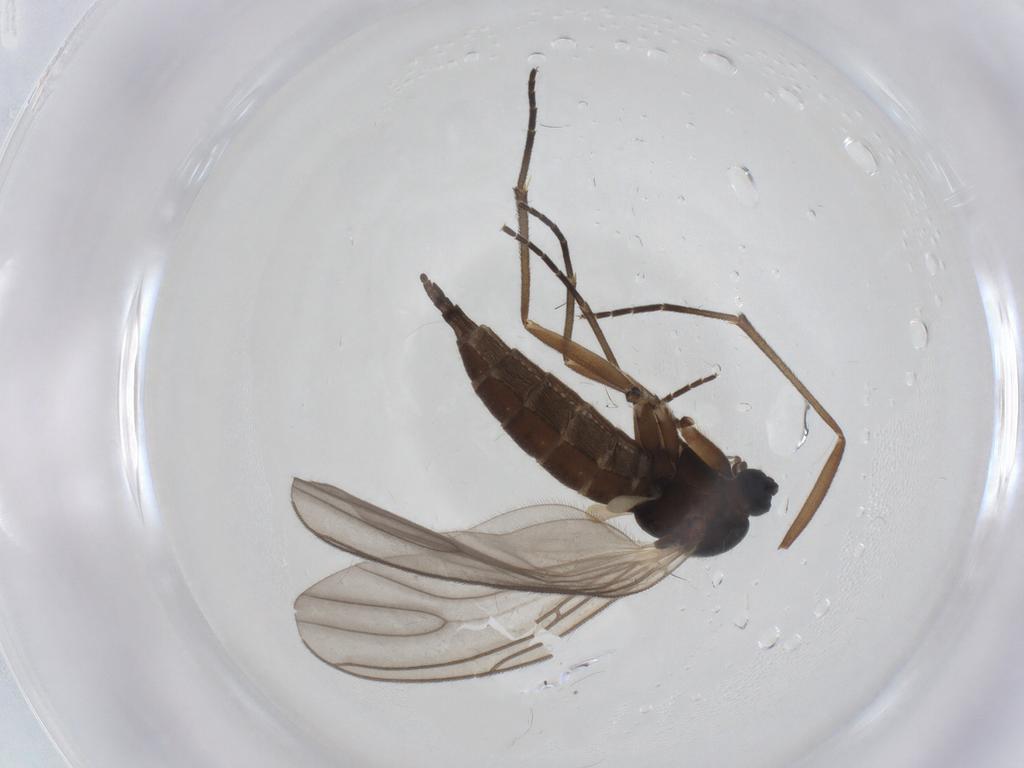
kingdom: Animalia
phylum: Arthropoda
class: Insecta
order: Diptera
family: Sciaridae
